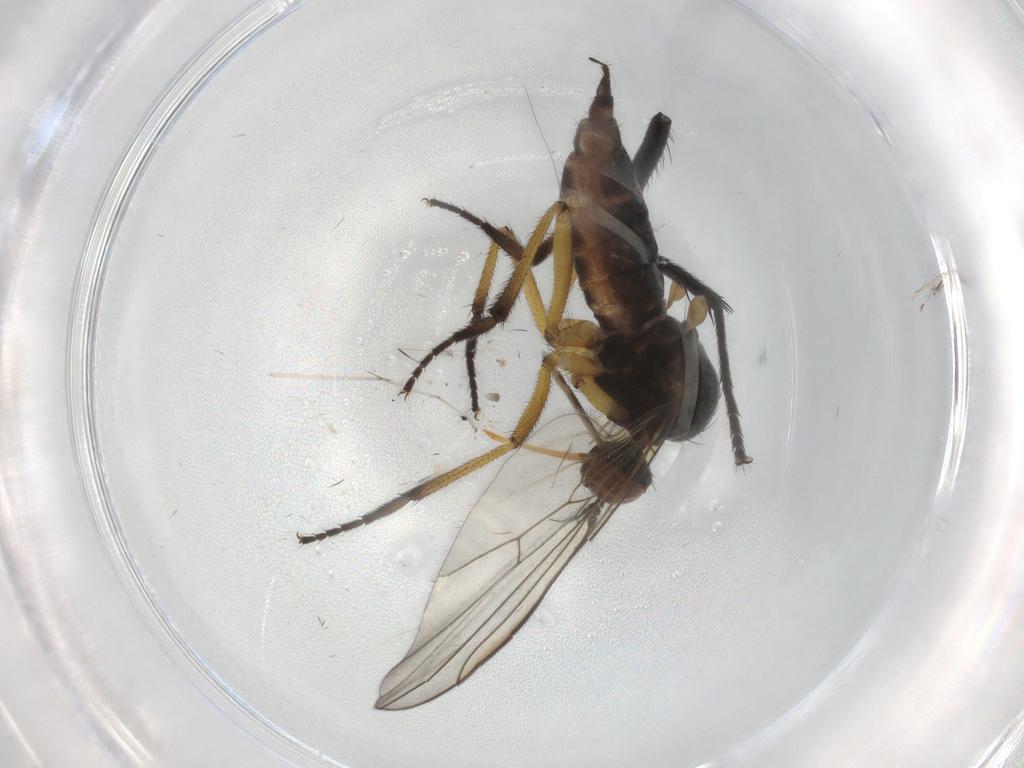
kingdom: Animalia
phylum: Arthropoda
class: Insecta
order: Diptera
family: Empididae
